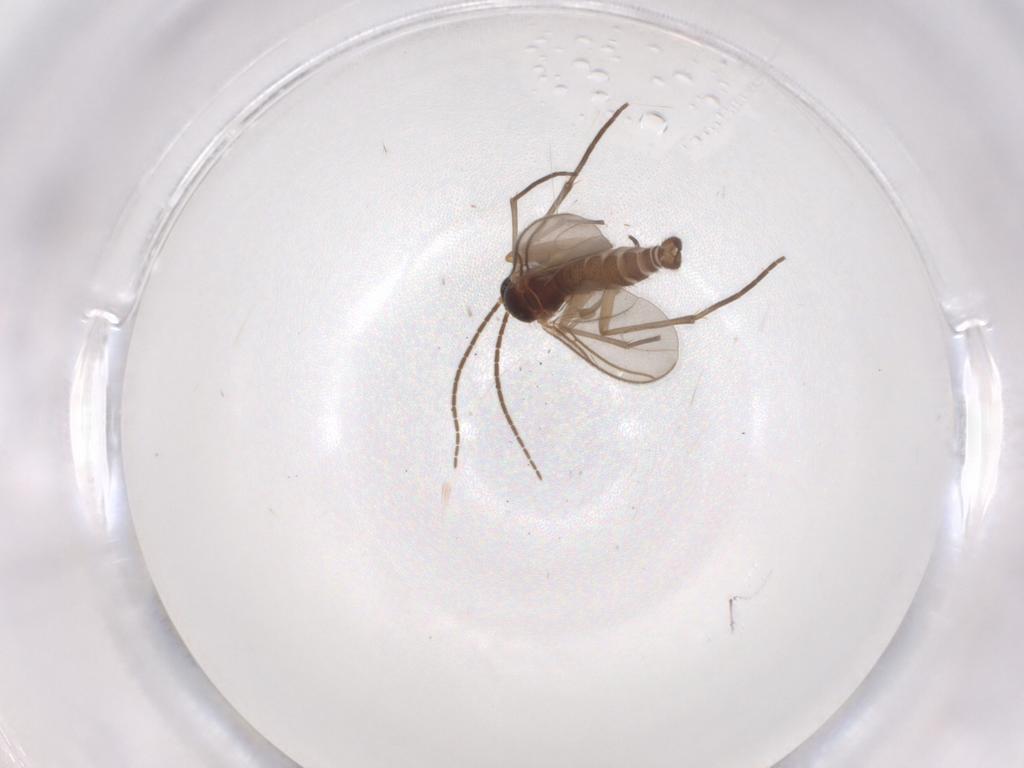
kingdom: Animalia
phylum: Arthropoda
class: Insecta
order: Diptera
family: Sciaridae
